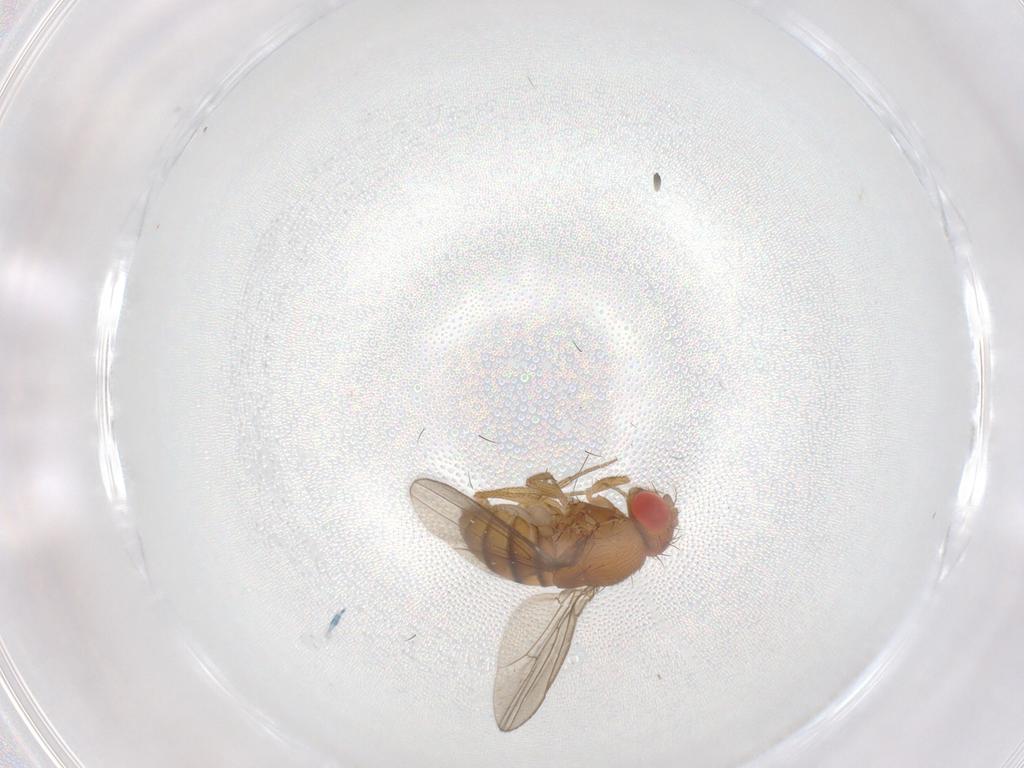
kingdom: Animalia
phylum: Arthropoda
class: Insecta
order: Diptera
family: Drosophilidae
